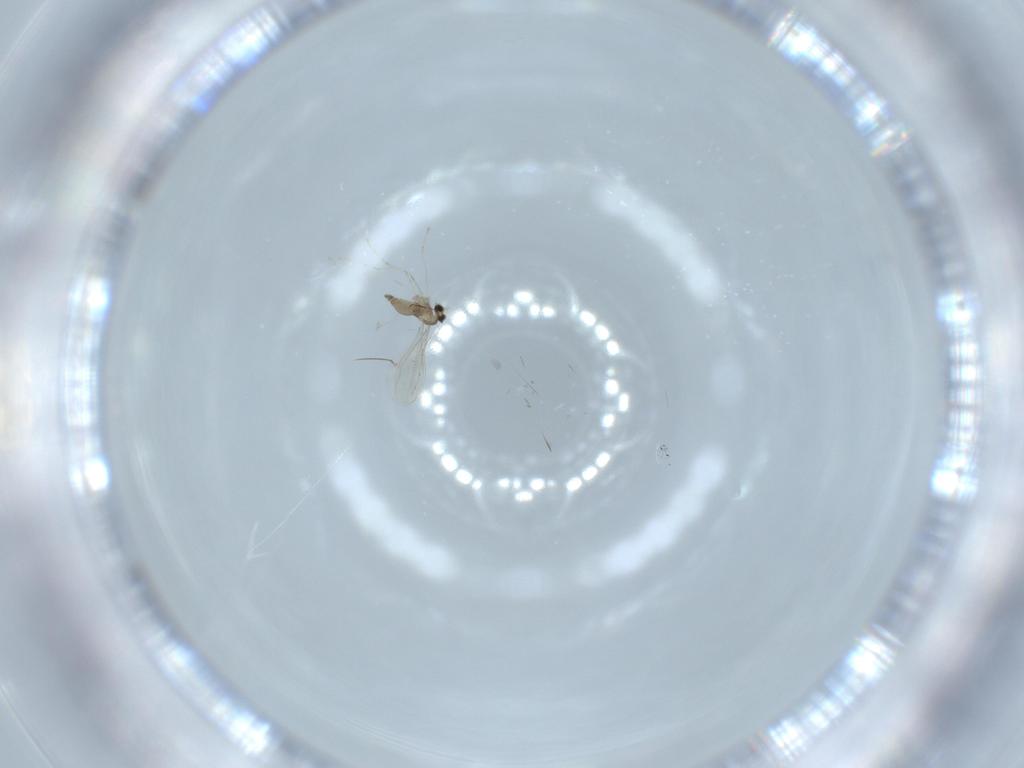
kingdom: Animalia
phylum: Arthropoda
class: Insecta
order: Diptera
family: Cecidomyiidae
